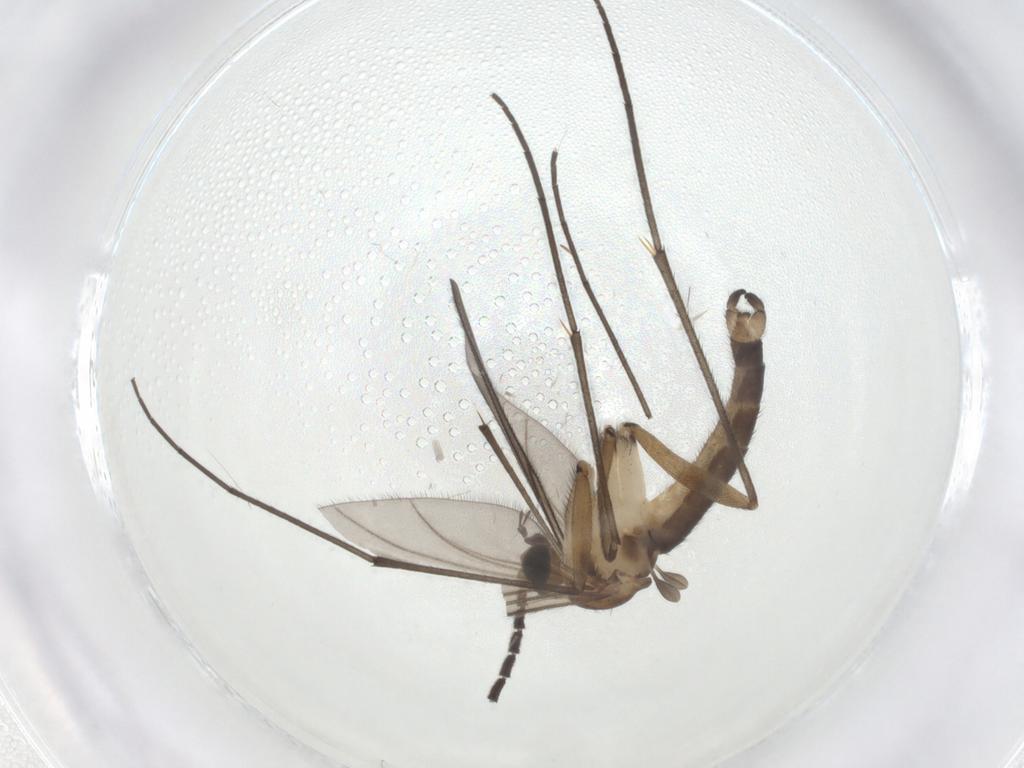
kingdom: Animalia
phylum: Arthropoda
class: Insecta
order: Diptera
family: Sciaridae
